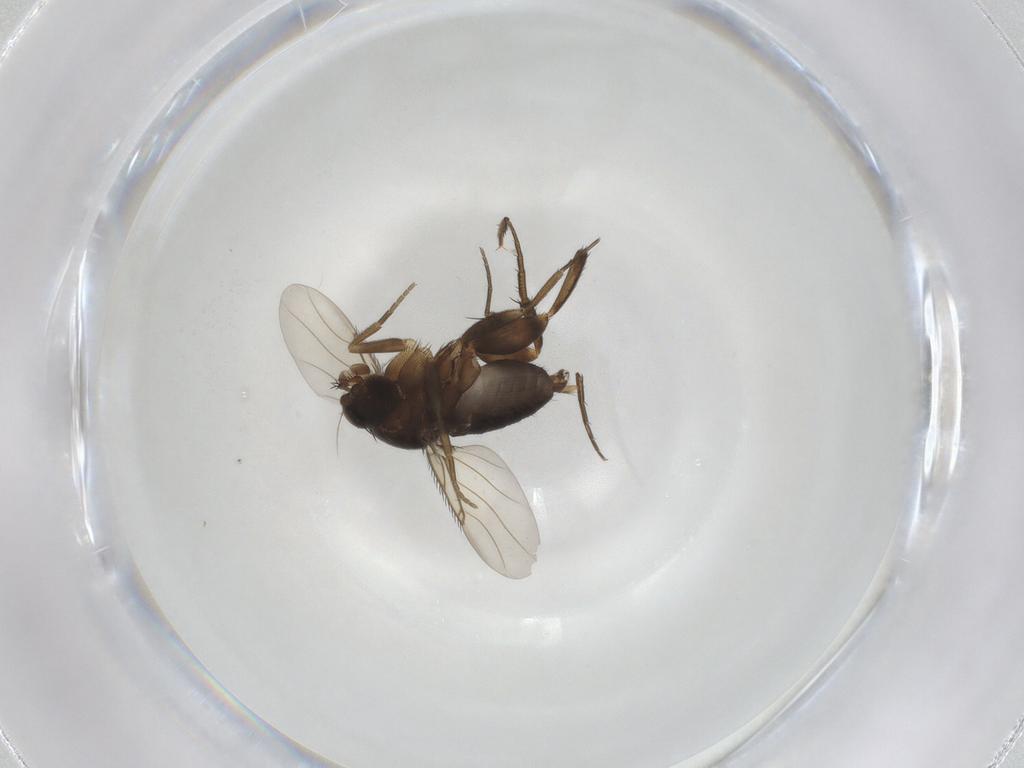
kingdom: Animalia
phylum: Arthropoda
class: Insecta
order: Diptera
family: Phoridae
